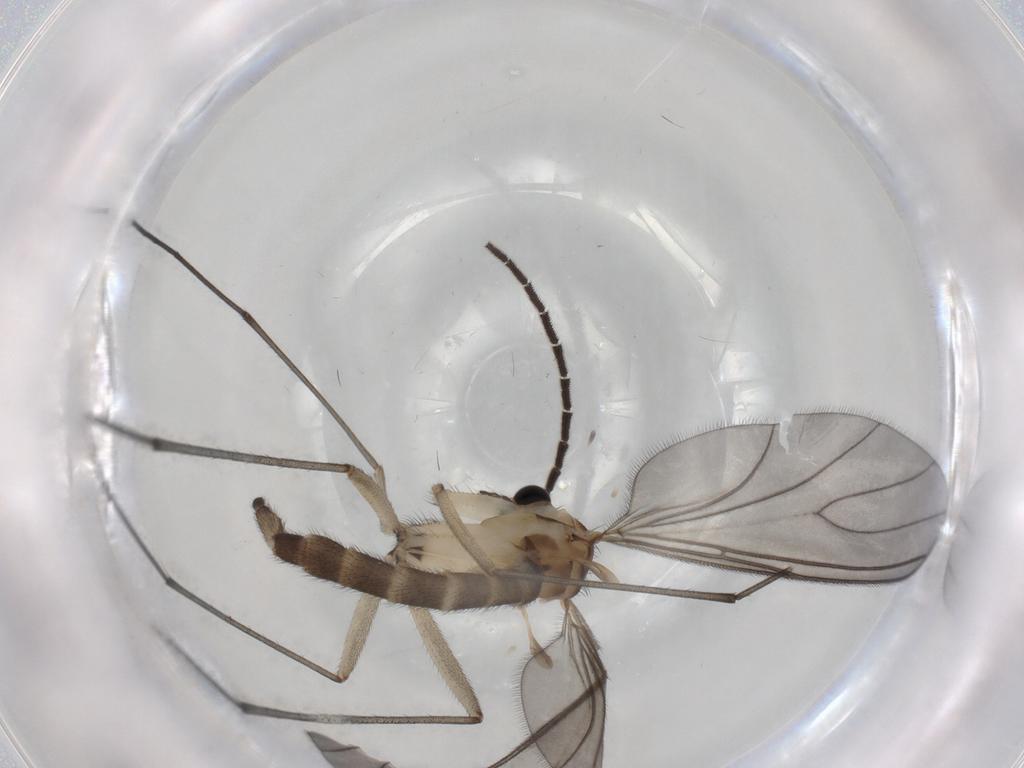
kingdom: Animalia
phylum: Arthropoda
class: Insecta
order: Diptera
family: Sciaridae
